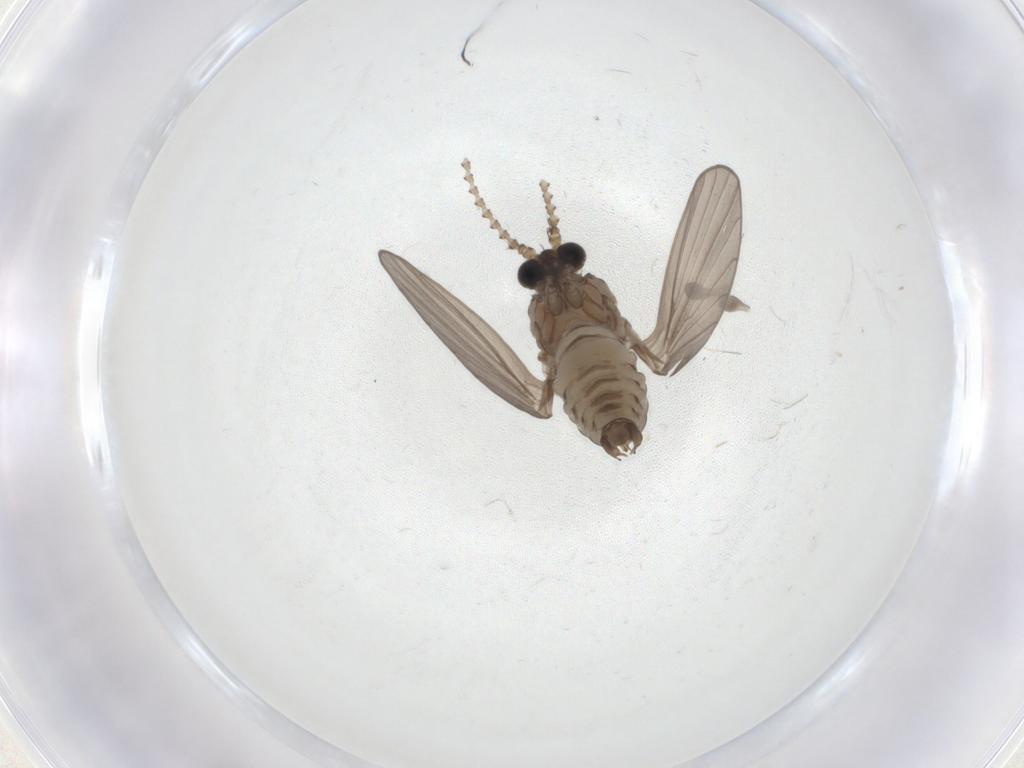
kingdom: Animalia
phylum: Arthropoda
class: Insecta
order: Diptera
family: Psychodidae
